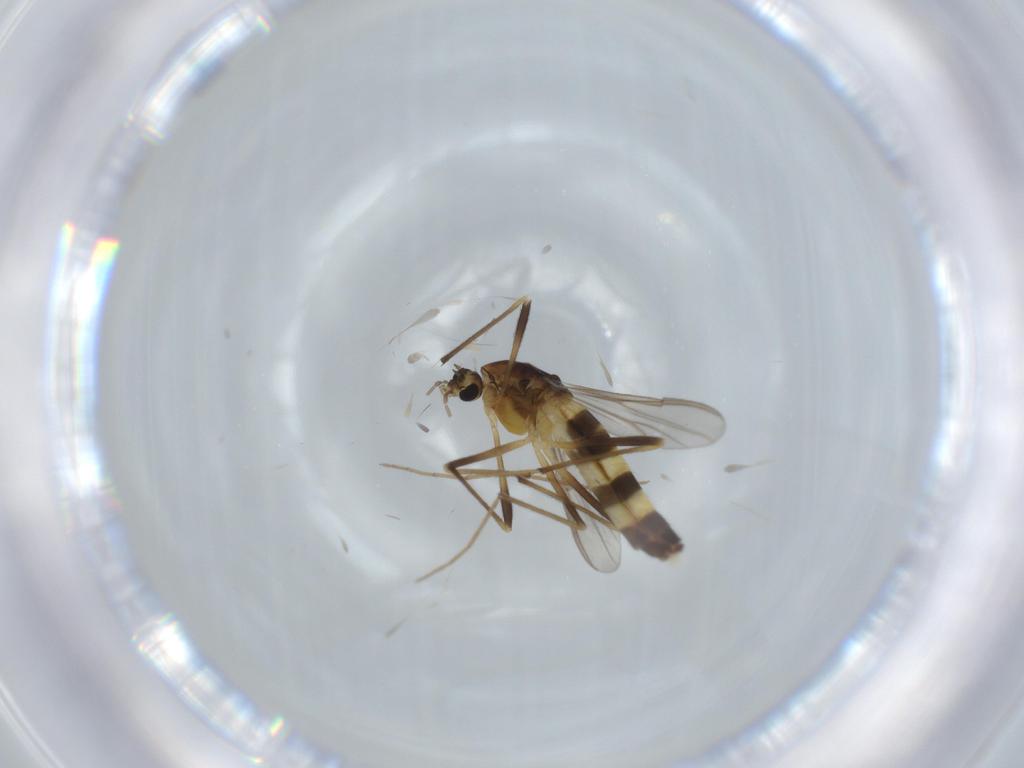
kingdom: Animalia
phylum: Arthropoda
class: Insecta
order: Diptera
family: Chironomidae
